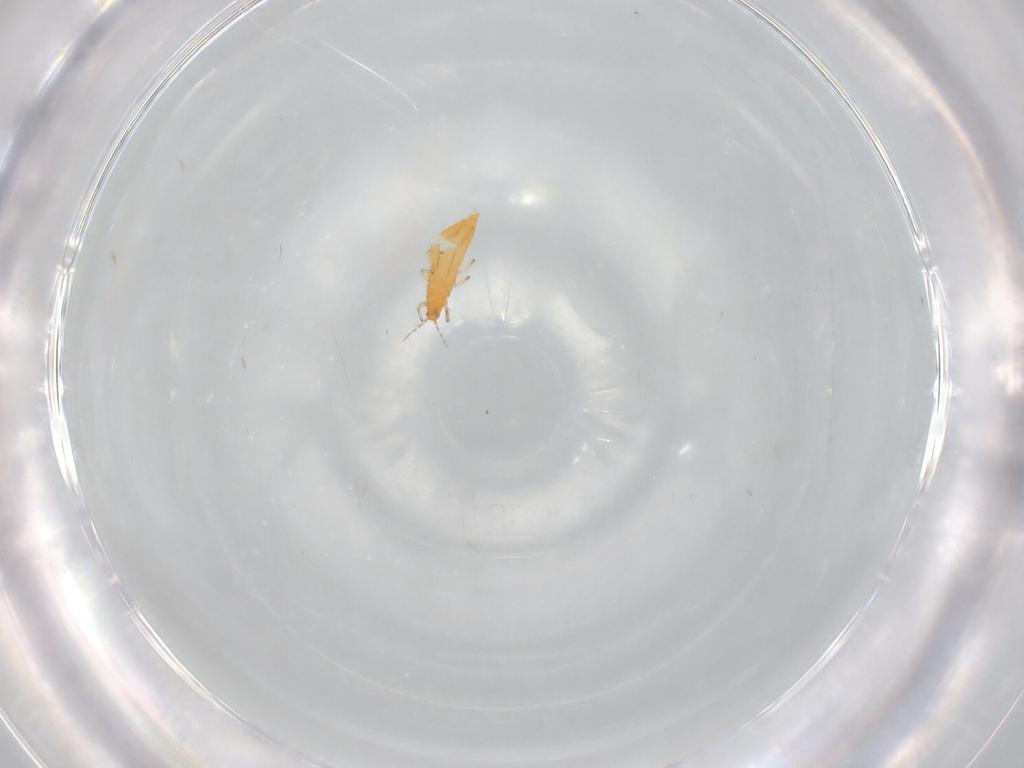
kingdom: Animalia
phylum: Arthropoda
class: Insecta
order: Thysanoptera
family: Aeolothripidae
